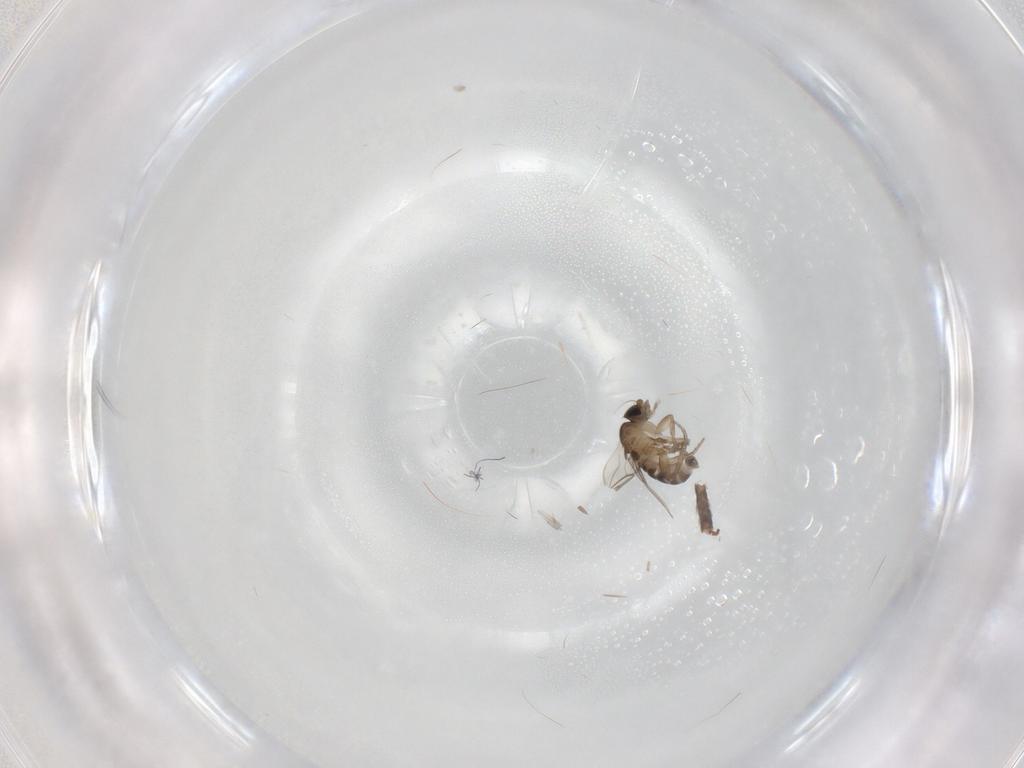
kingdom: Animalia
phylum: Arthropoda
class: Insecta
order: Diptera
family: Phoridae
